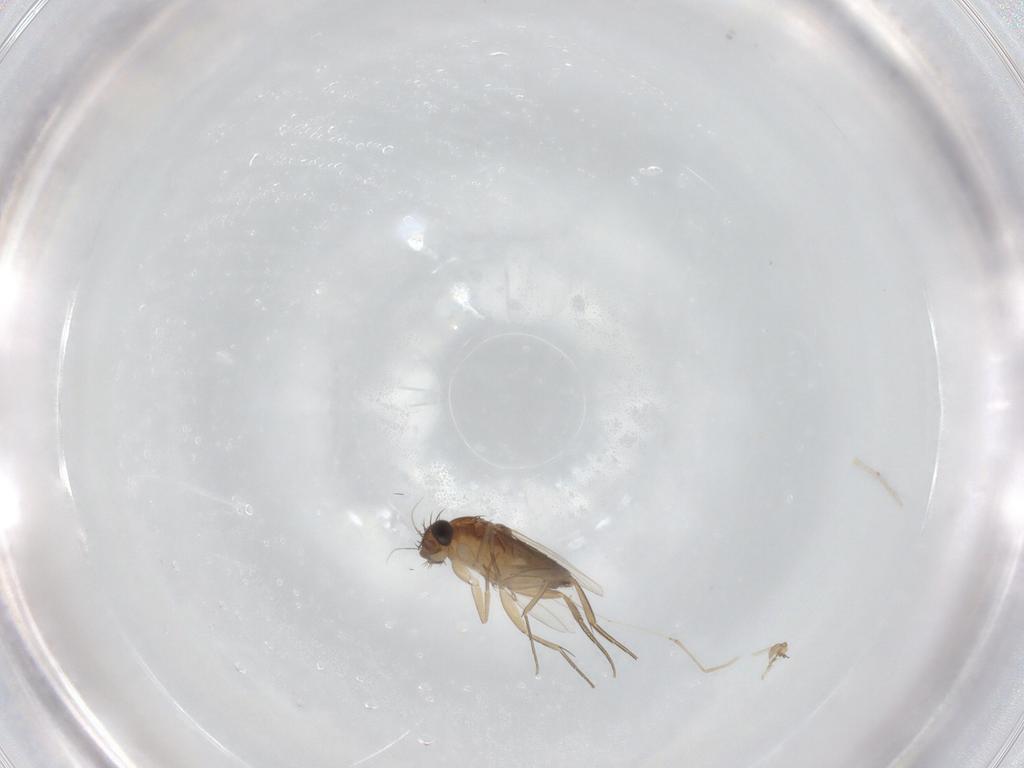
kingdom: Animalia
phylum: Arthropoda
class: Insecta
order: Diptera
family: Phoridae
